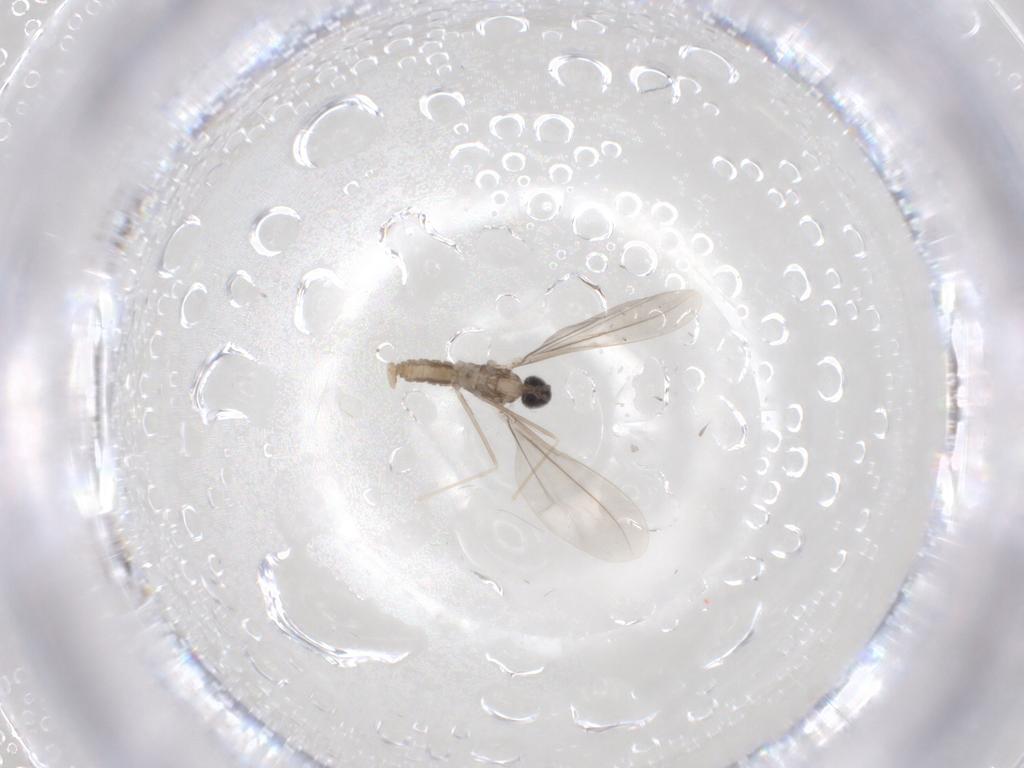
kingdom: Animalia
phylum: Arthropoda
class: Insecta
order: Diptera
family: Cecidomyiidae
